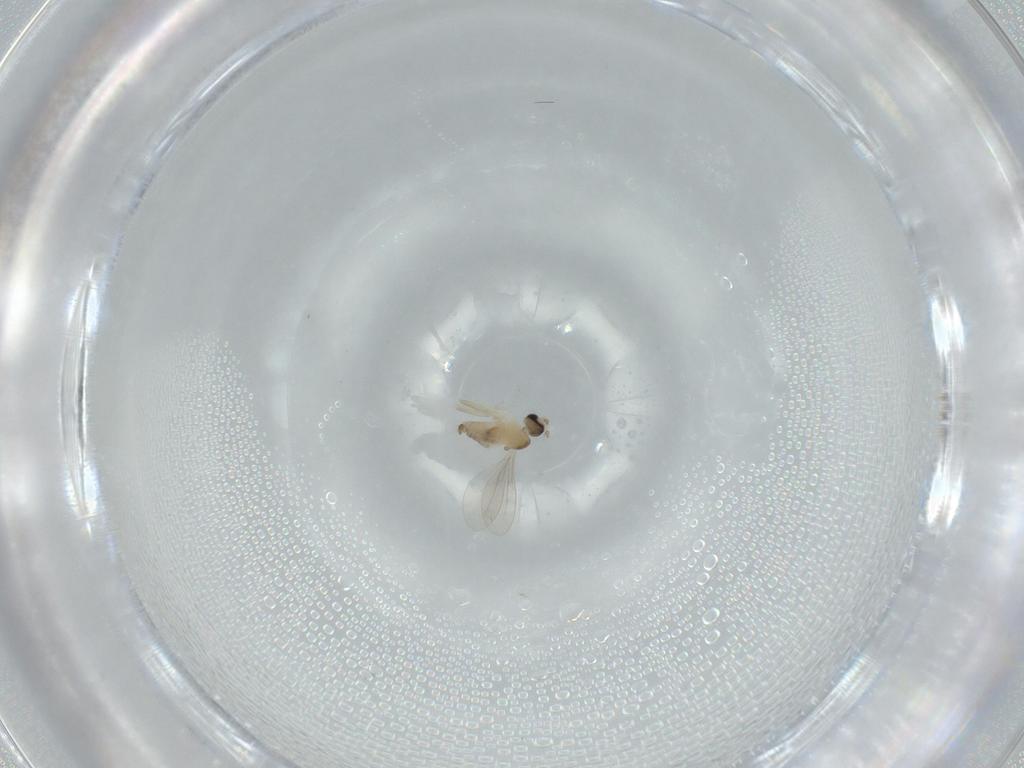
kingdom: Animalia
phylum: Arthropoda
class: Insecta
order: Diptera
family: Cecidomyiidae
